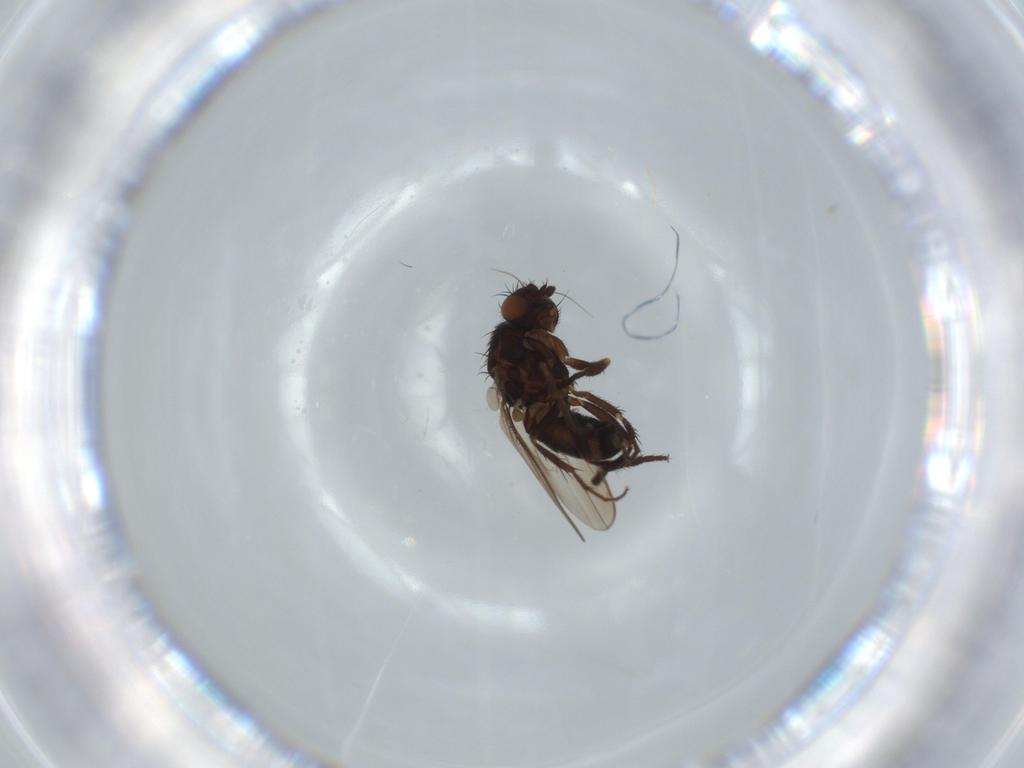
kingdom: Animalia
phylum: Arthropoda
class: Insecta
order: Diptera
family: Sphaeroceridae
